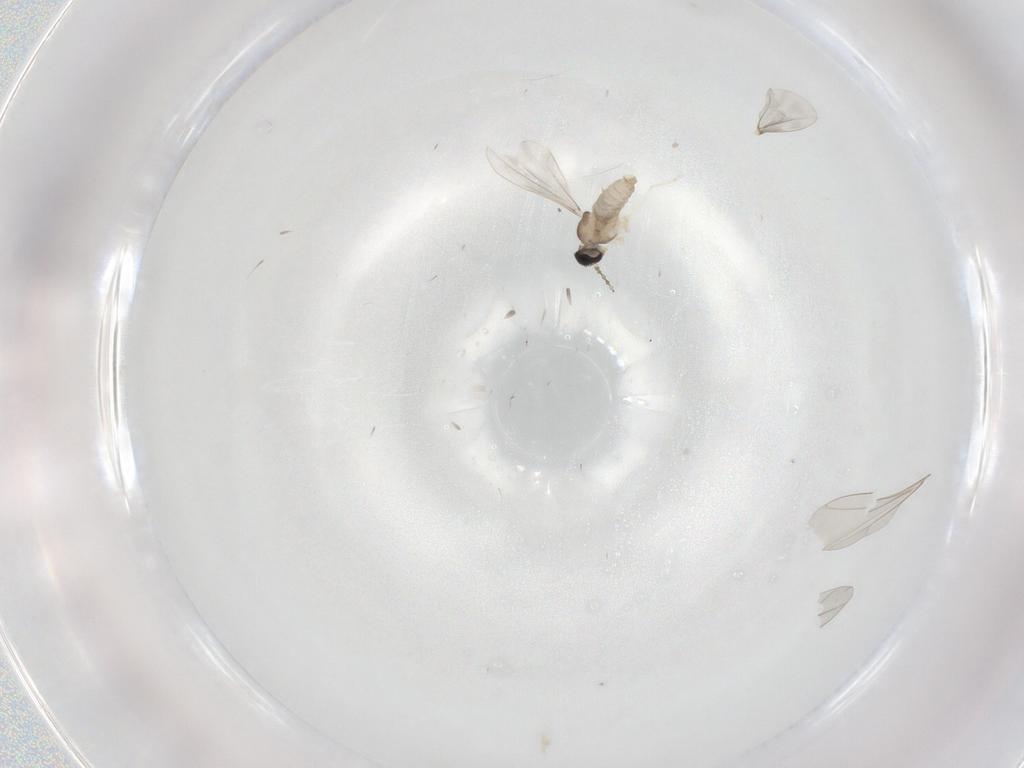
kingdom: Animalia
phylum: Arthropoda
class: Insecta
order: Diptera
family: Cecidomyiidae
